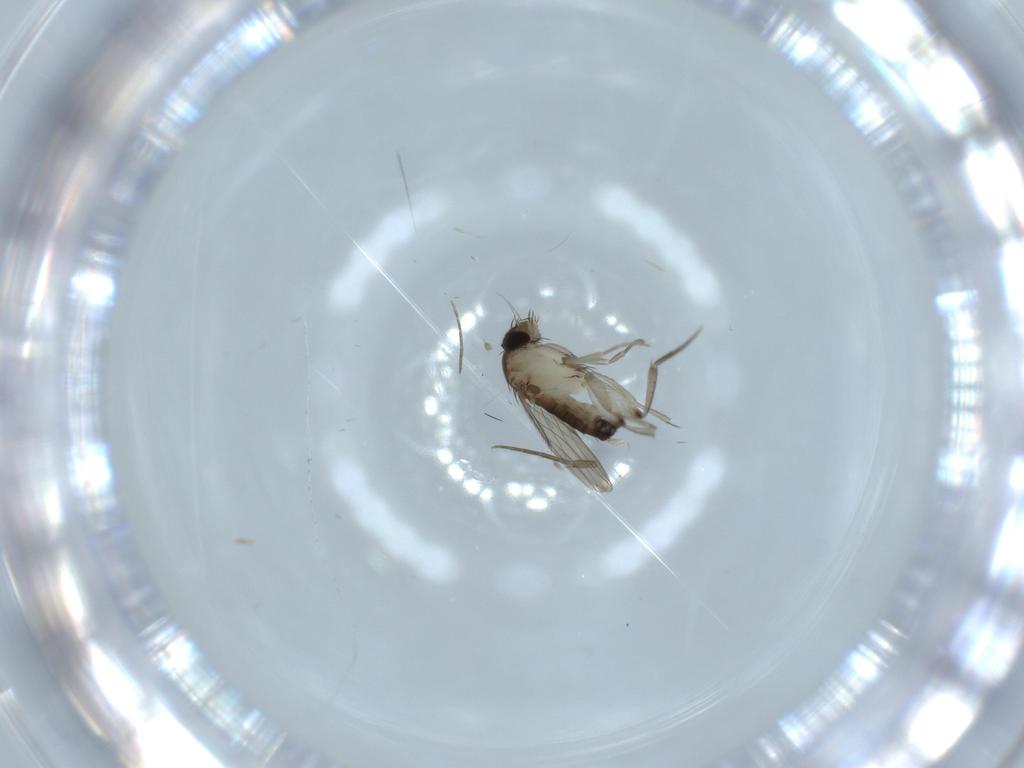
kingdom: Animalia
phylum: Arthropoda
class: Insecta
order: Diptera
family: Phoridae
